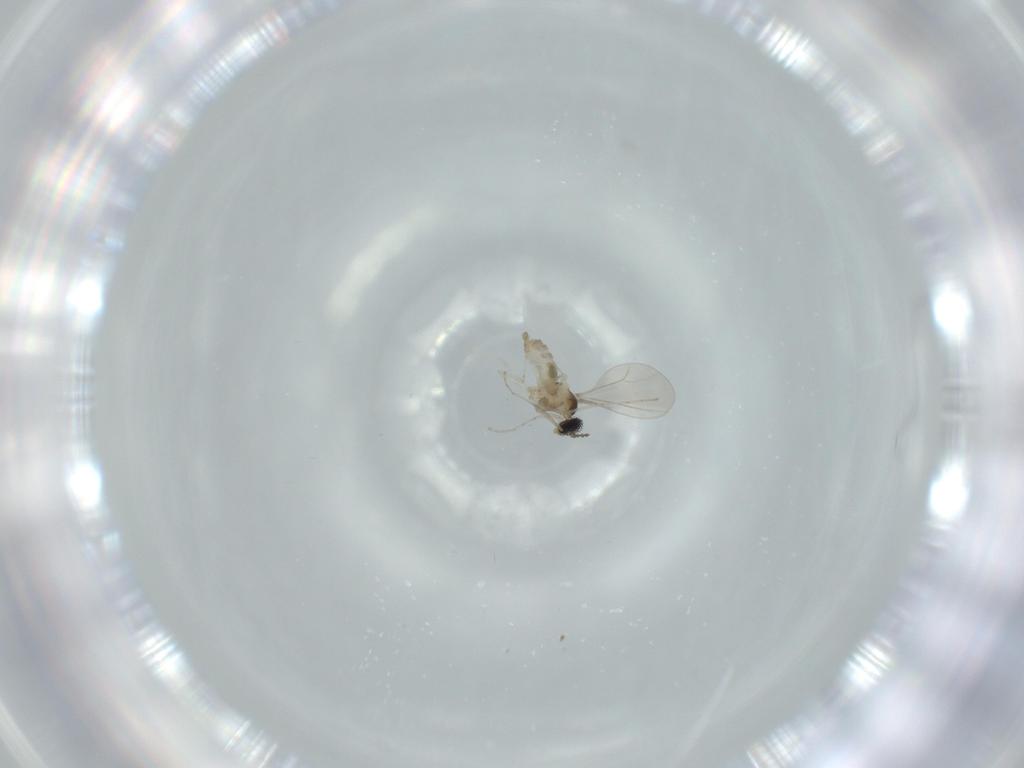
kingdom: Animalia
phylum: Arthropoda
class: Insecta
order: Diptera
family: Cecidomyiidae
